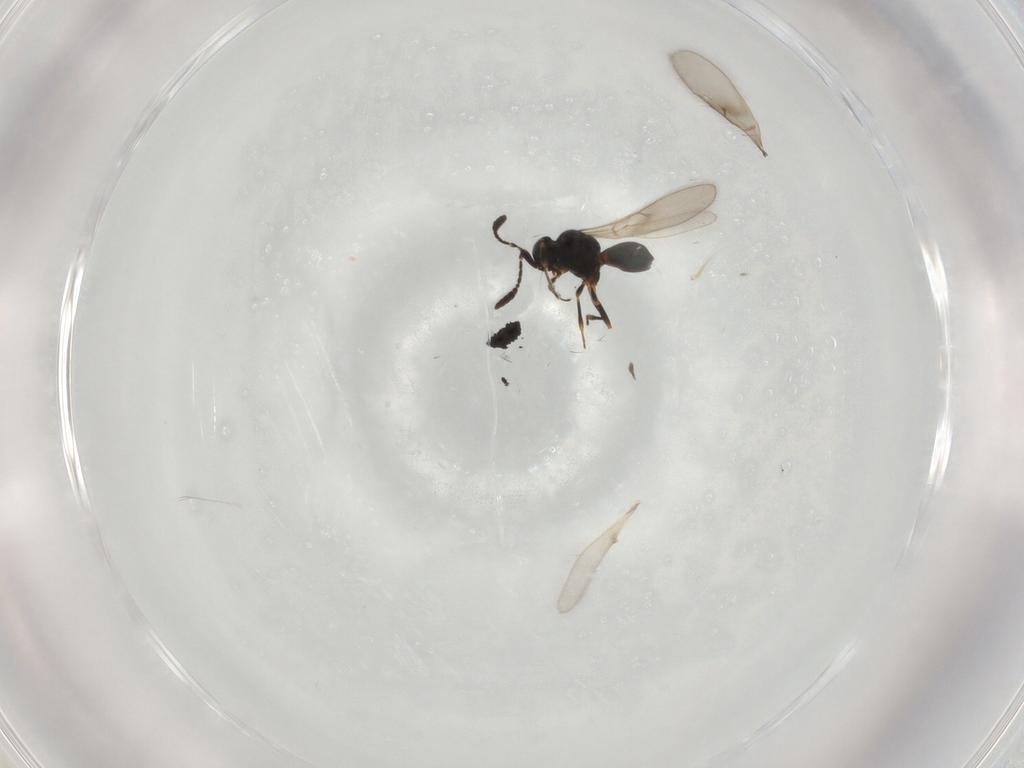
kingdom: Animalia
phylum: Arthropoda
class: Insecta
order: Hymenoptera
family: Scelionidae
